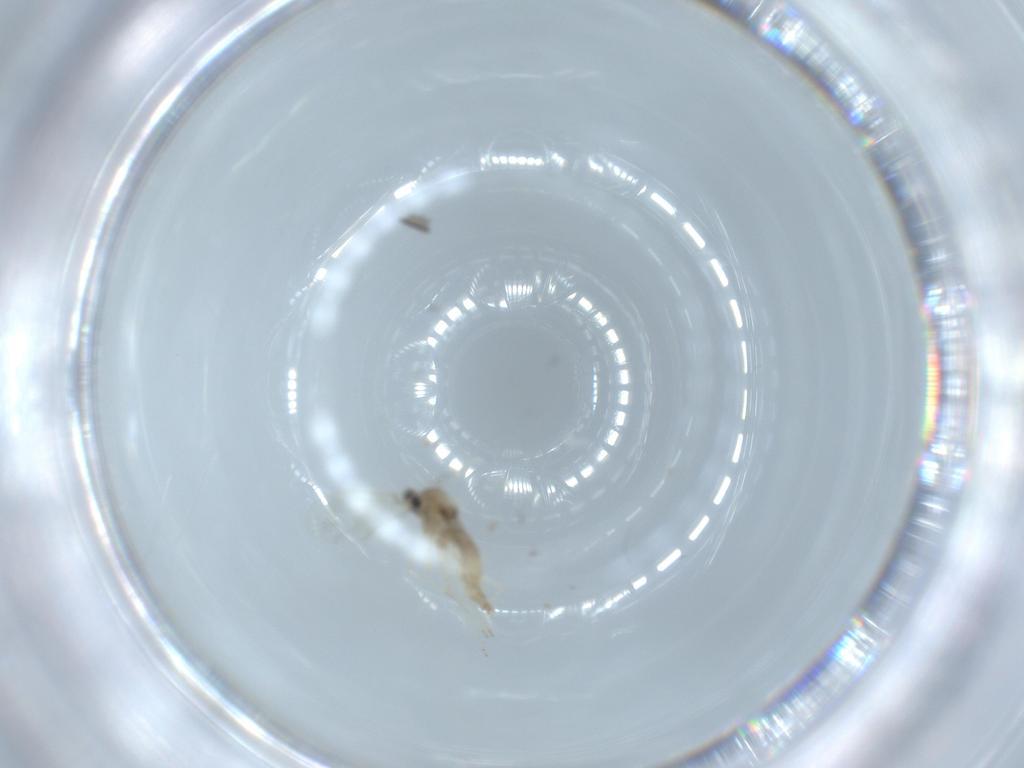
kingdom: Animalia
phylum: Arthropoda
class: Insecta
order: Diptera
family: Cecidomyiidae
